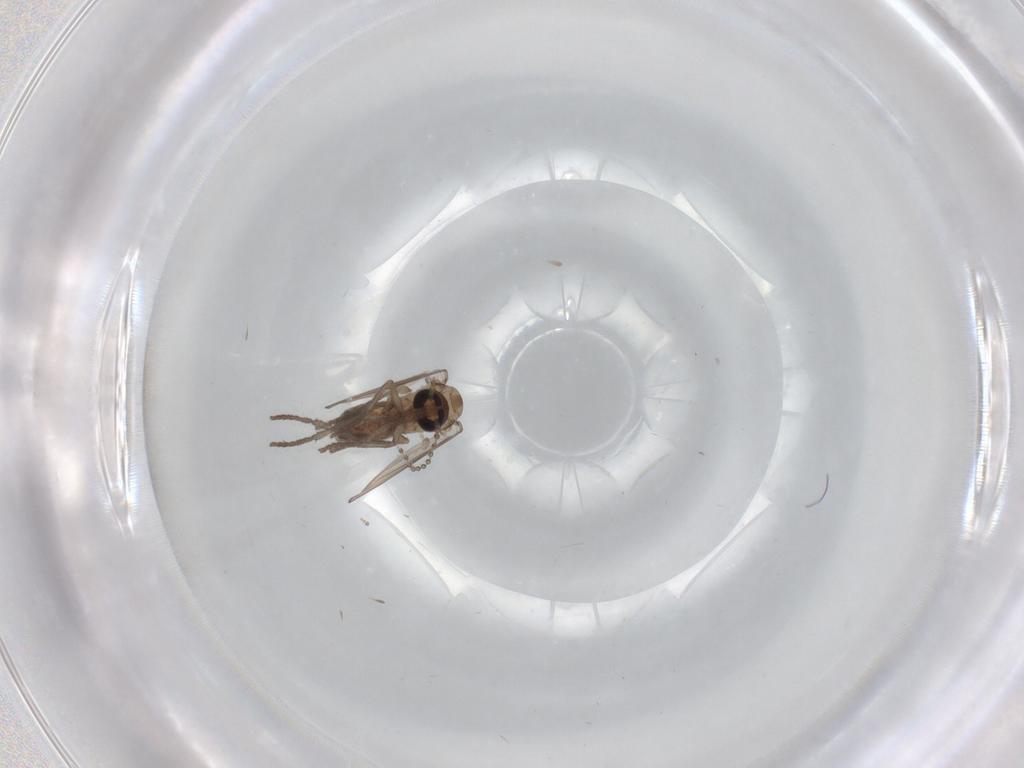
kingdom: Animalia
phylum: Arthropoda
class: Insecta
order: Diptera
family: Psychodidae
